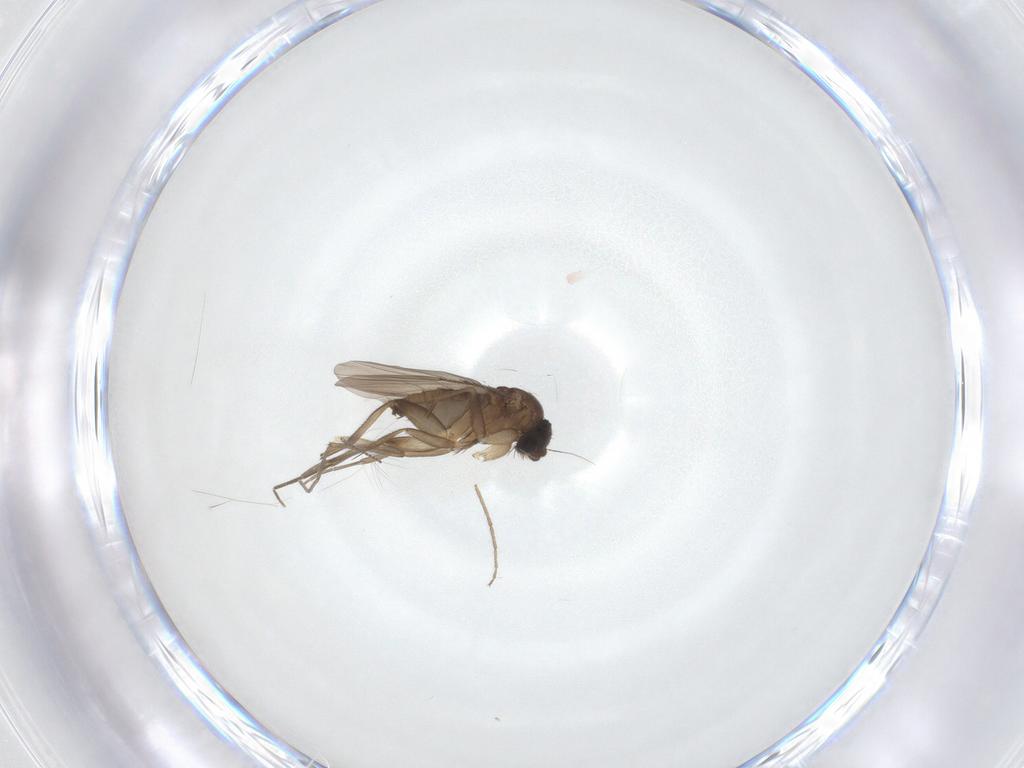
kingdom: Animalia
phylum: Arthropoda
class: Insecta
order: Diptera
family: Chironomidae
